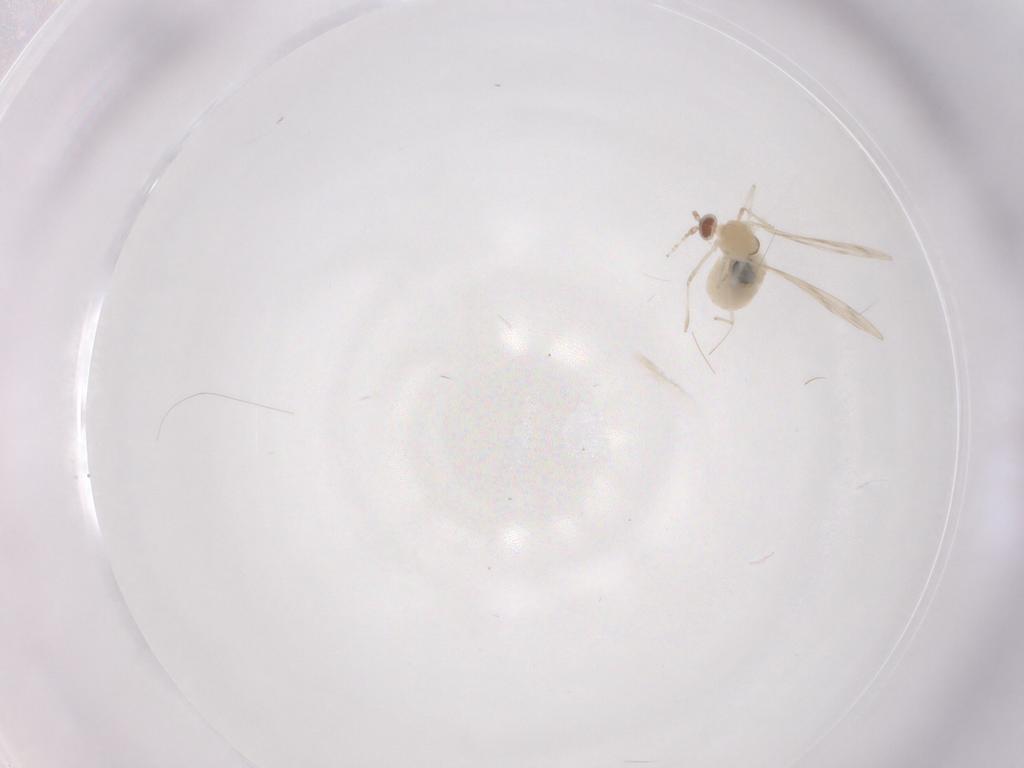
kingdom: Animalia
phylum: Arthropoda
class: Insecta
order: Diptera
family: Cecidomyiidae
